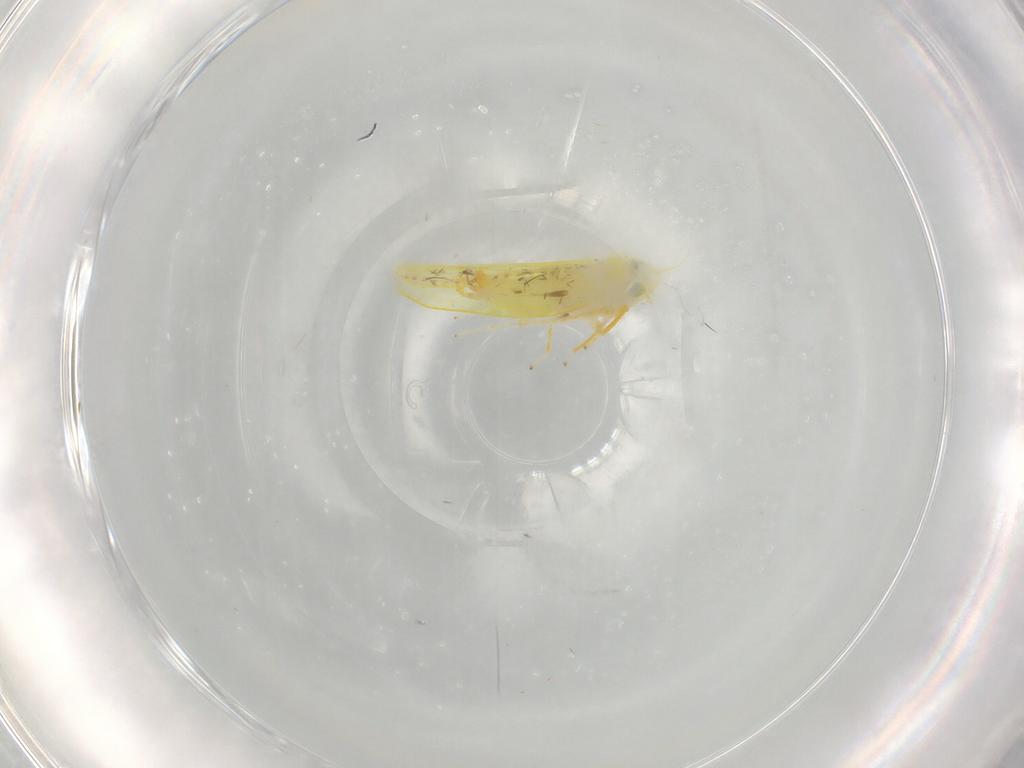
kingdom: Animalia
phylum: Arthropoda
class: Insecta
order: Hemiptera
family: Cicadellidae
